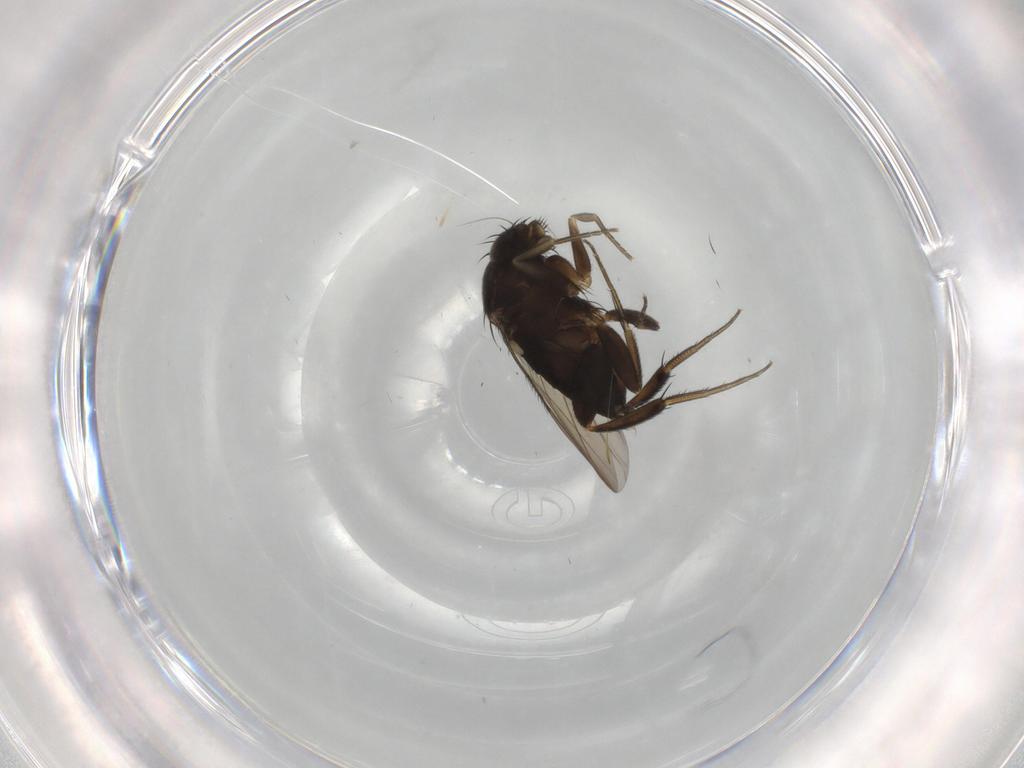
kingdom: Animalia
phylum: Arthropoda
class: Insecta
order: Diptera
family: Phoridae
